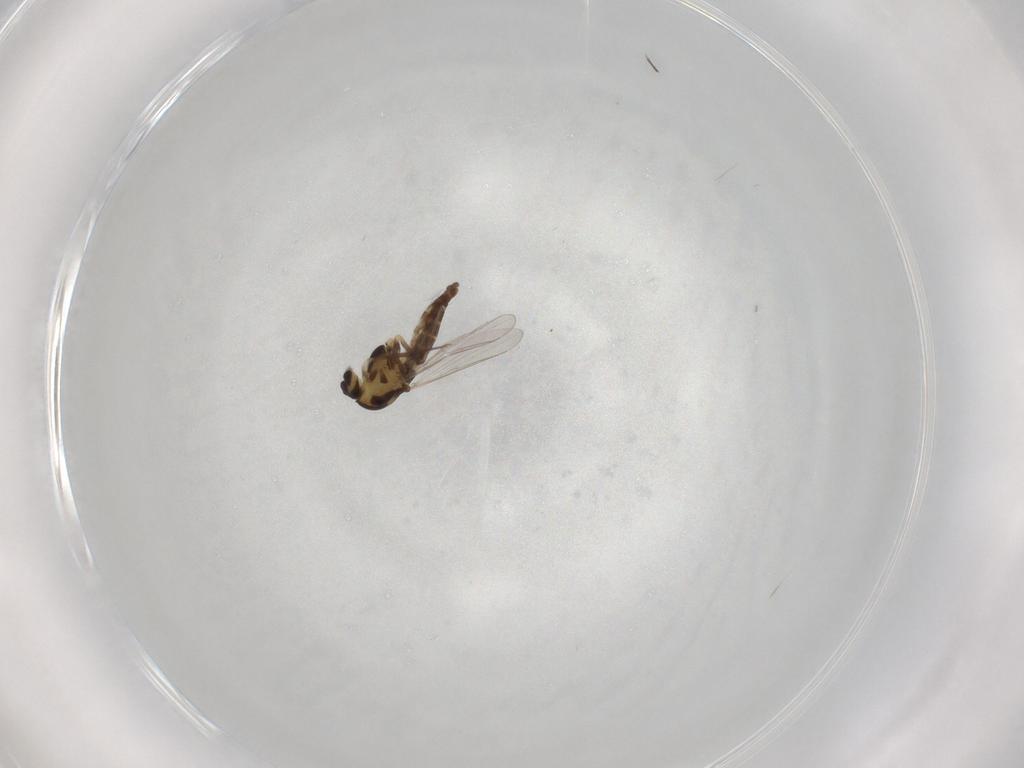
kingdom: Animalia
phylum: Arthropoda
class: Insecta
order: Diptera
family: Chironomidae
